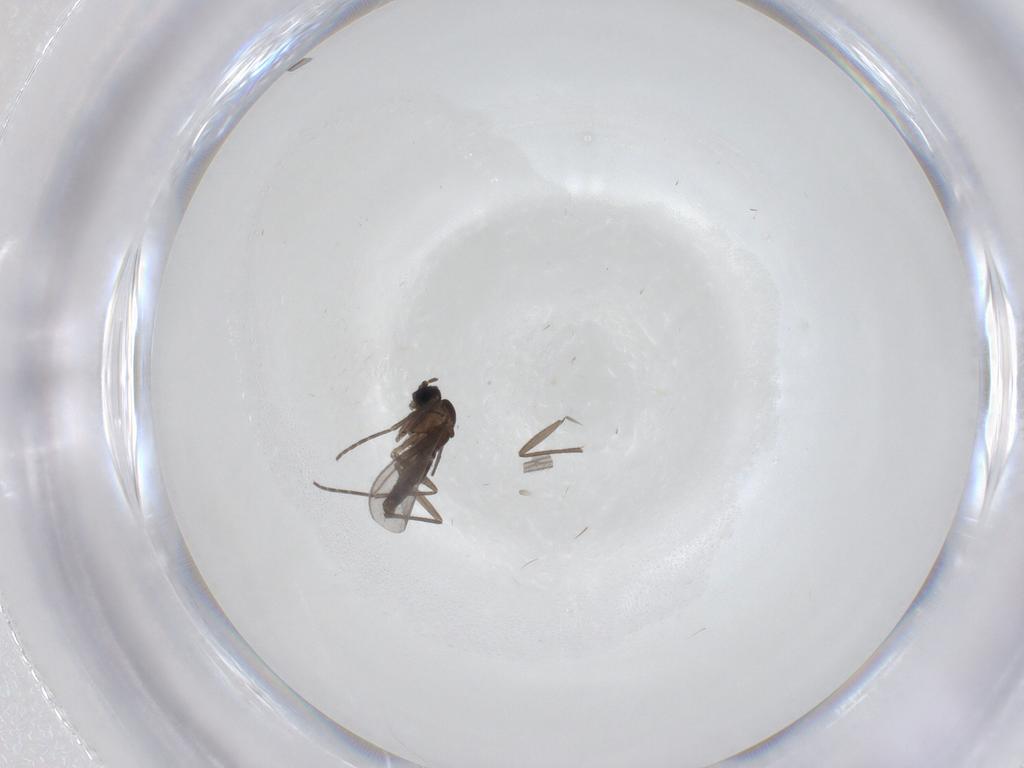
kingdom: Animalia
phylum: Arthropoda
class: Insecta
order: Diptera
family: Sciaridae
